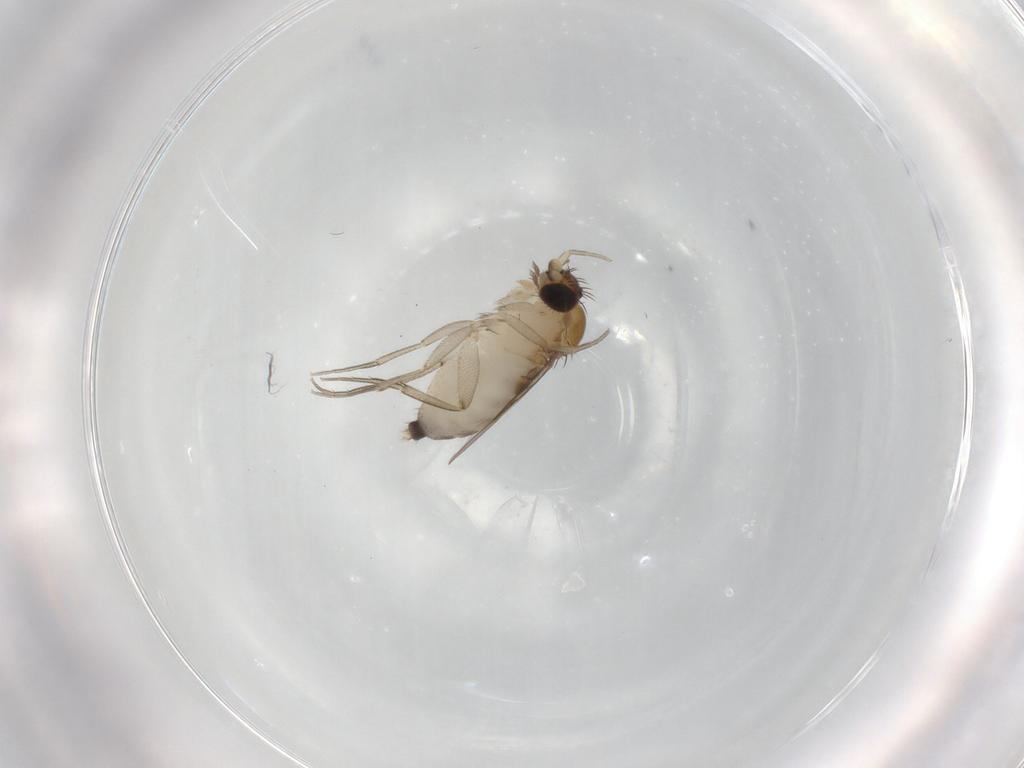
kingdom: Animalia
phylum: Arthropoda
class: Insecta
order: Diptera
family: Phoridae
